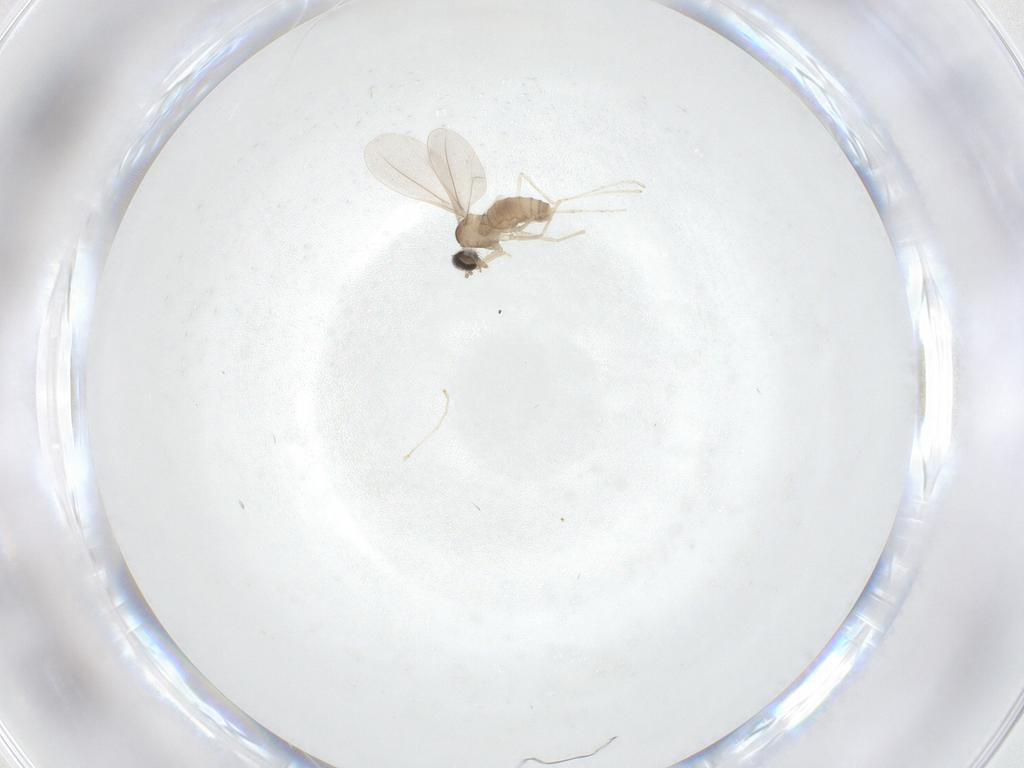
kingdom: Animalia
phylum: Arthropoda
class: Insecta
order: Diptera
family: Cecidomyiidae
